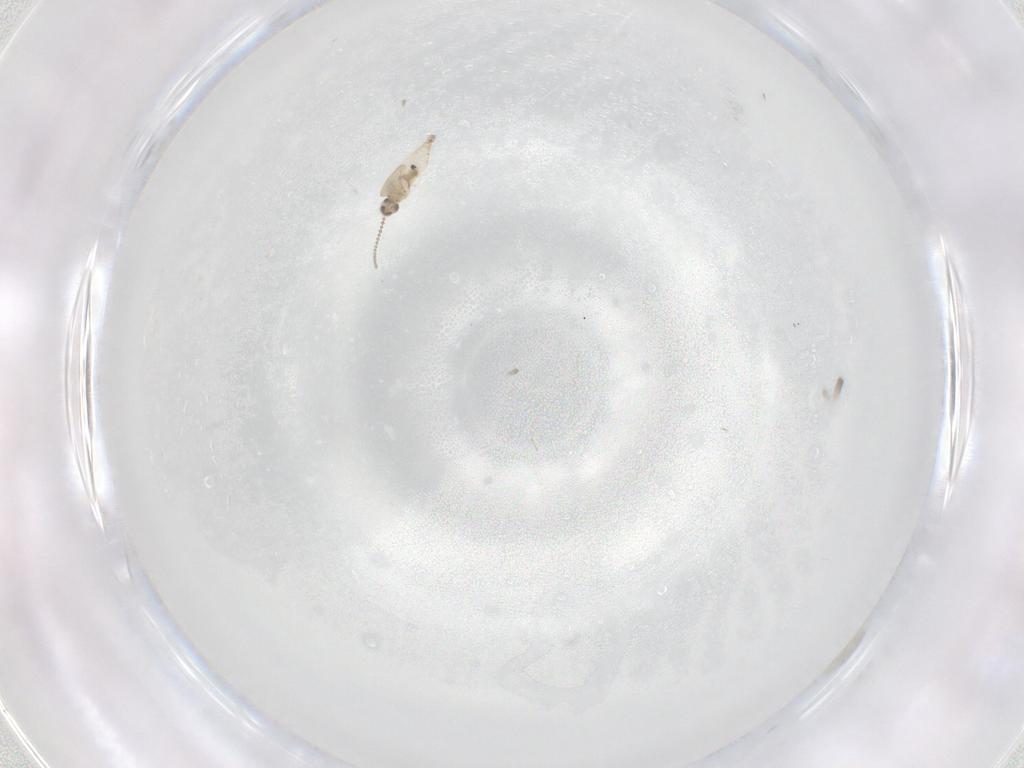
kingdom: Animalia
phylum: Arthropoda
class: Insecta
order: Diptera
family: Cecidomyiidae
